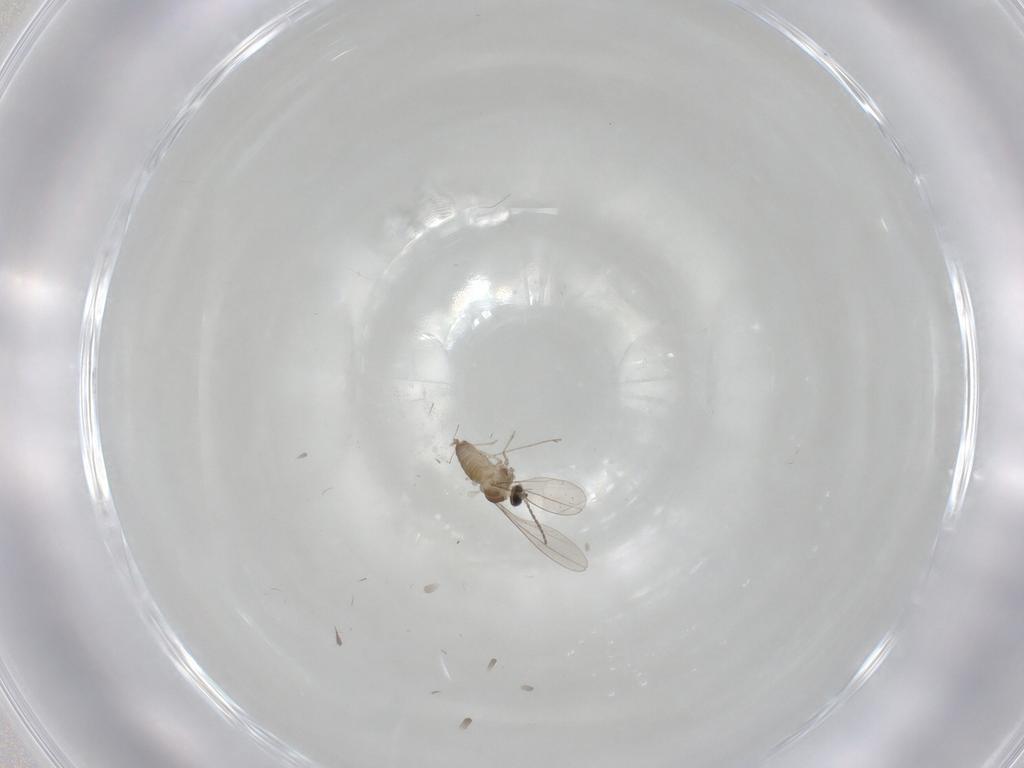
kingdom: Animalia
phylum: Arthropoda
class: Insecta
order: Diptera
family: Cecidomyiidae
